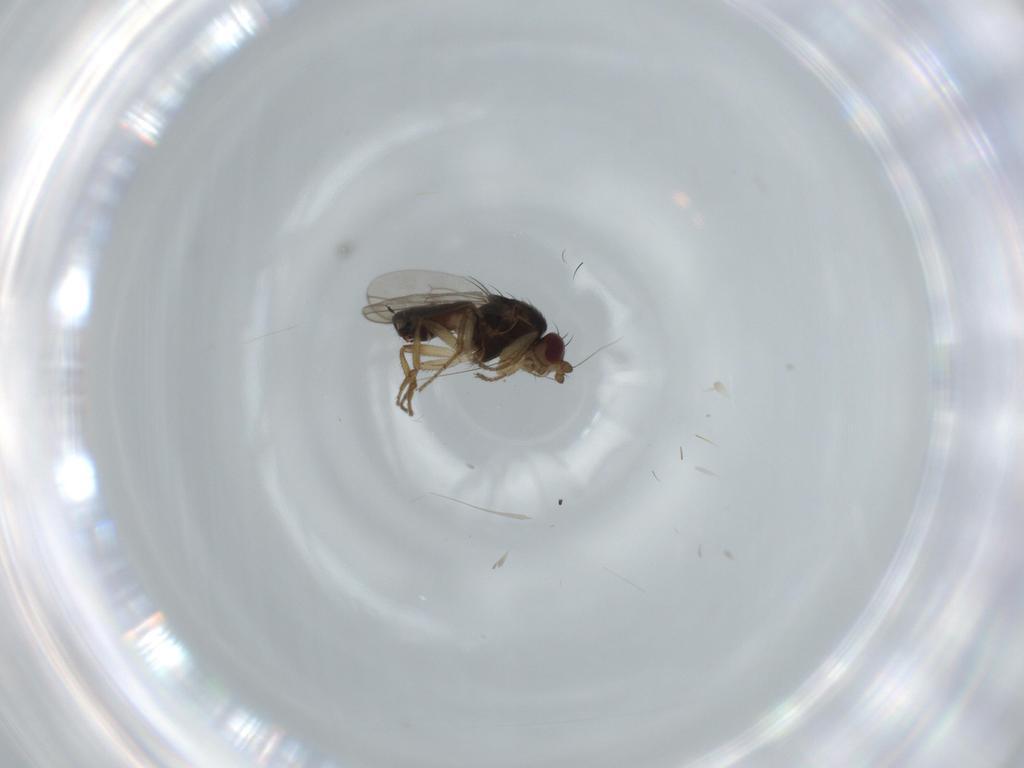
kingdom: Animalia
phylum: Arthropoda
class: Insecta
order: Diptera
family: Sphaeroceridae
